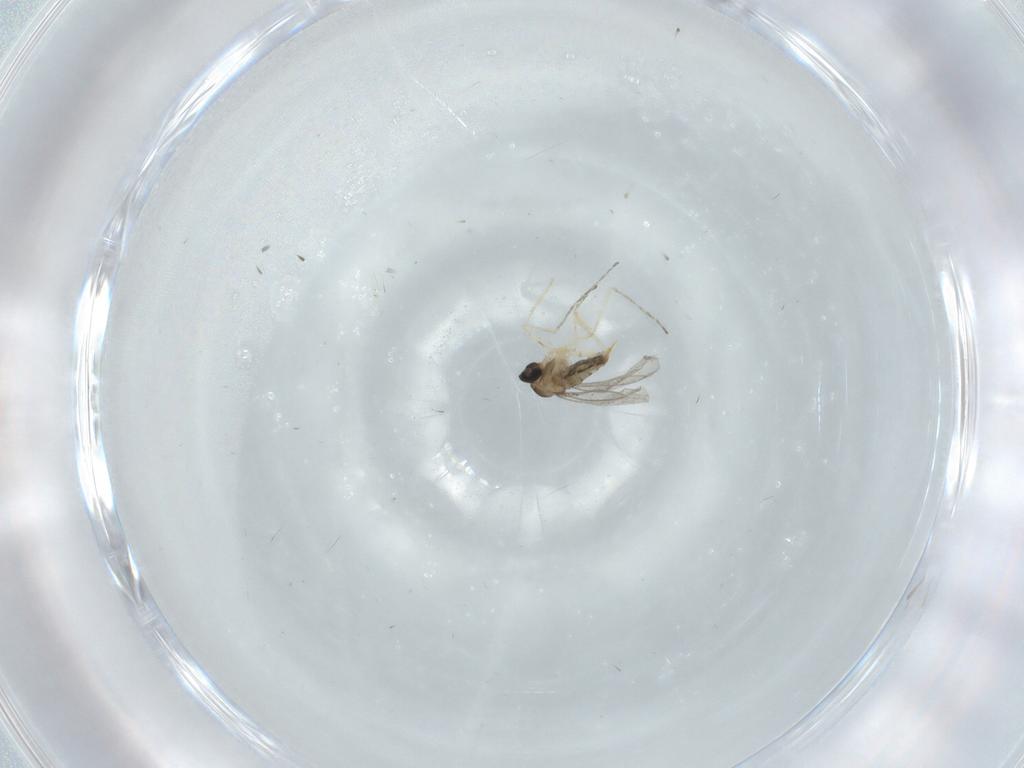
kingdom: Animalia
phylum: Arthropoda
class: Insecta
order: Diptera
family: Cecidomyiidae
